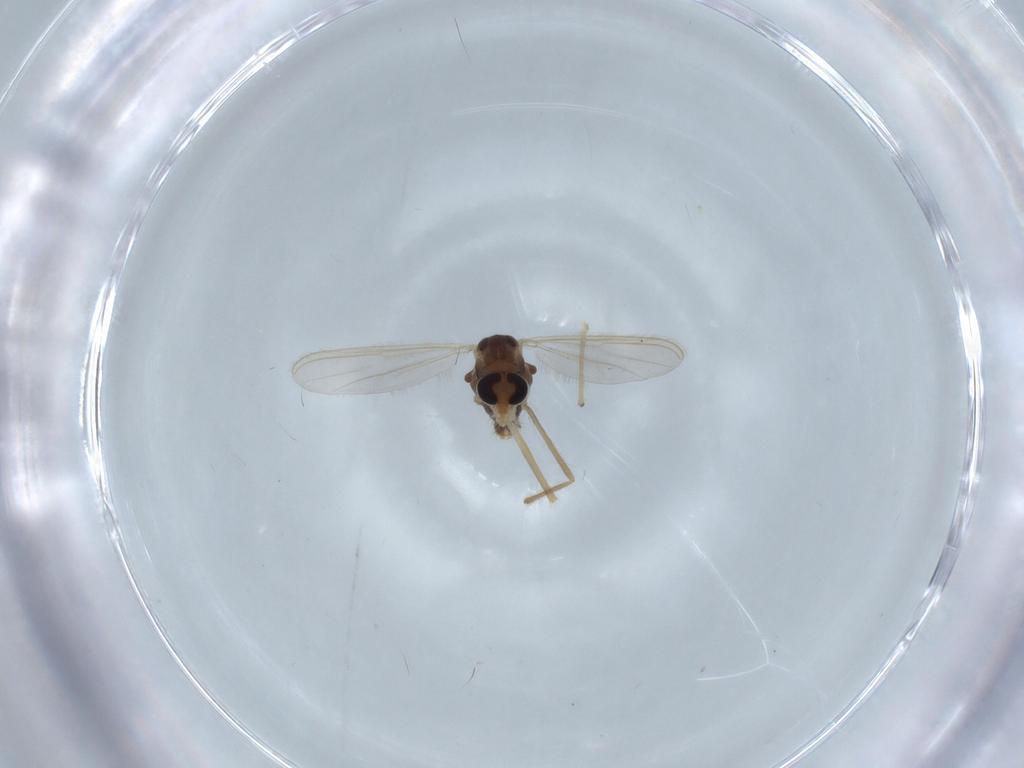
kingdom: Animalia
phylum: Arthropoda
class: Insecta
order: Diptera
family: Chironomidae
